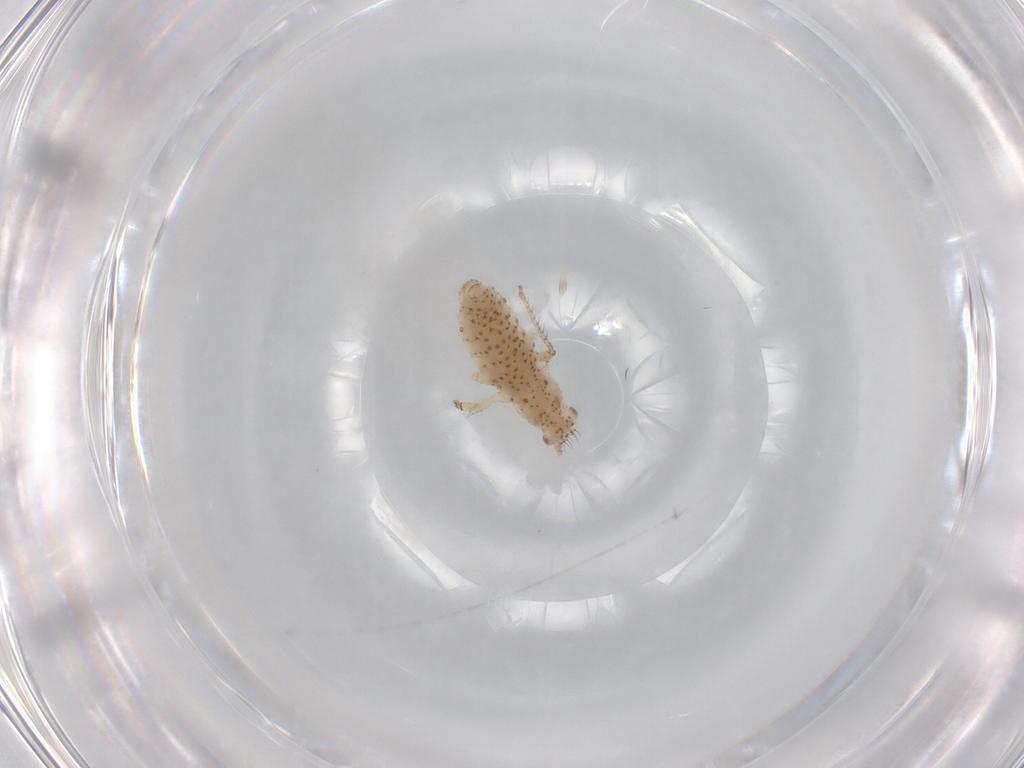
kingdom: Animalia
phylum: Arthropoda
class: Insecta
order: Hemiptera
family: Aphididae
